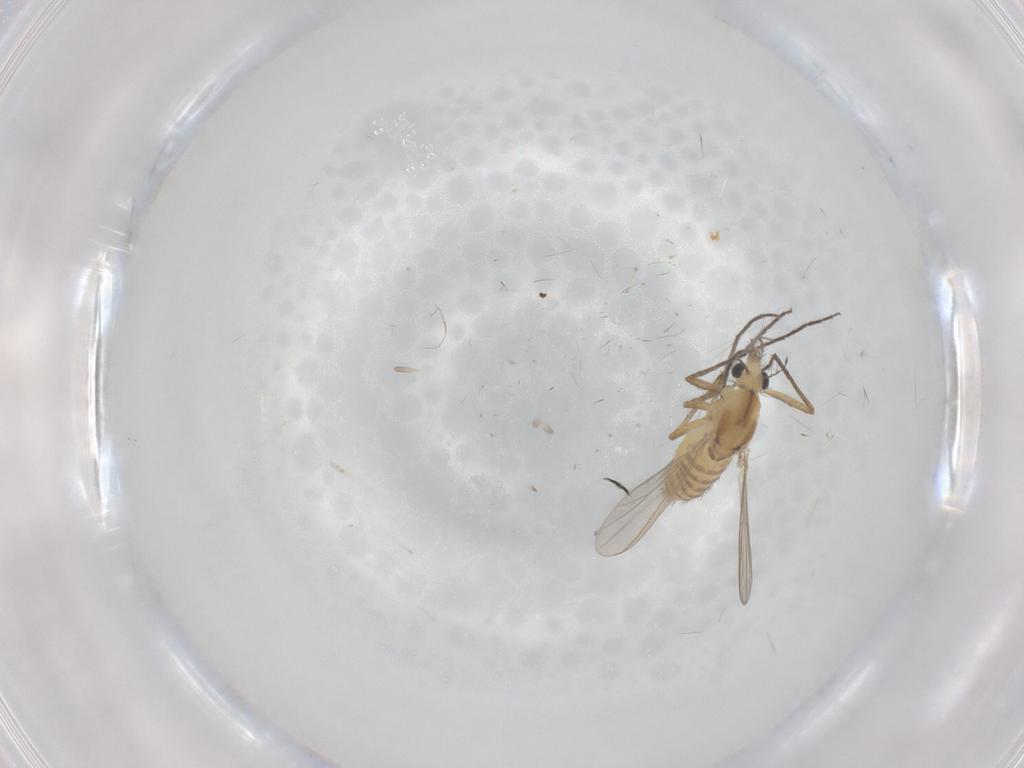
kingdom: Animalia
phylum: Arthropoda
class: Insecta
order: Diptera
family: Chironomidae
